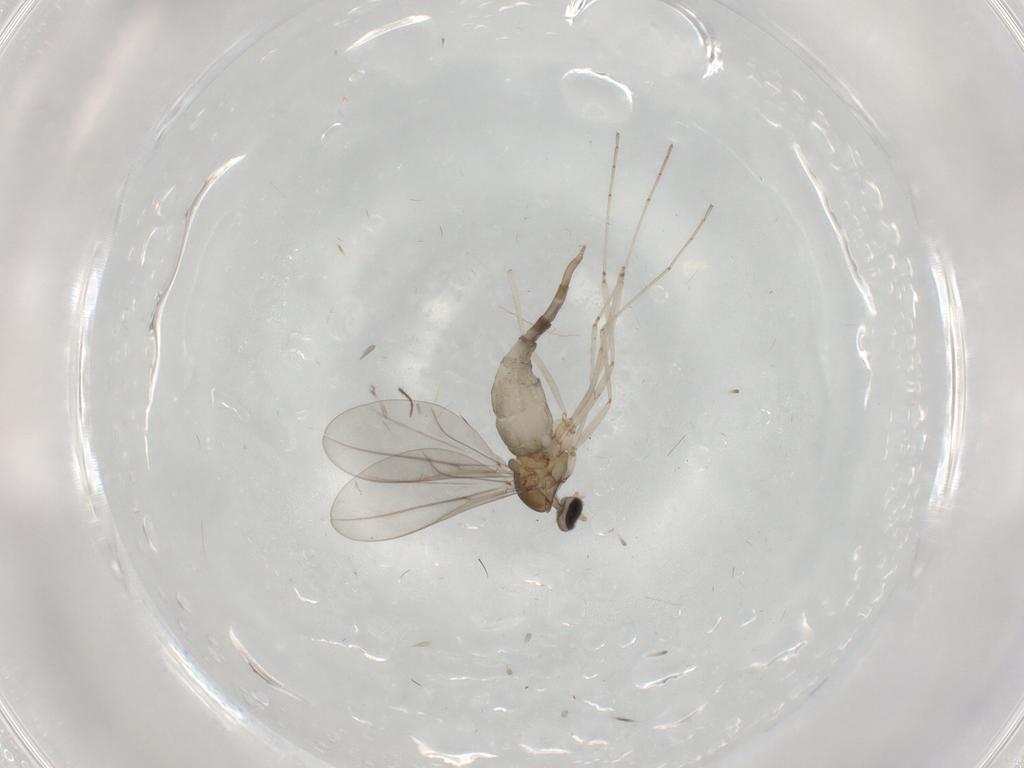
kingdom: Animalia
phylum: Arthropoda
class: Insecta
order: Diptera
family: Cecidomyiidae
